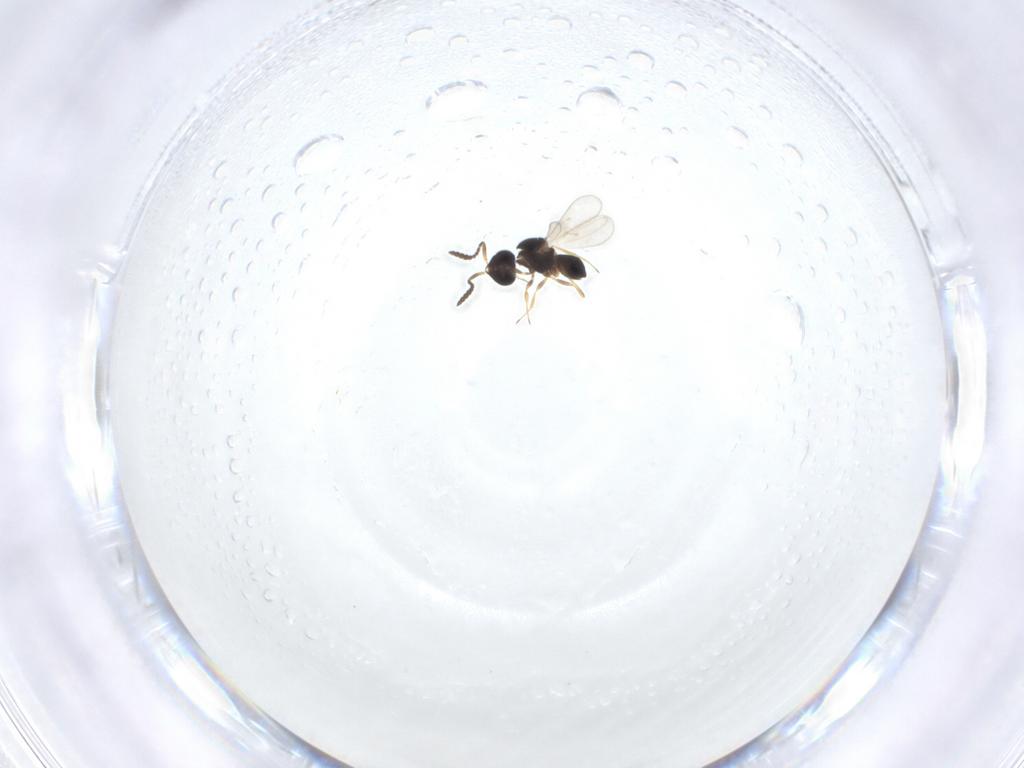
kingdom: Animalia
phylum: Arthropoda
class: Insecta
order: Hymenoptera
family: Scelionidae
